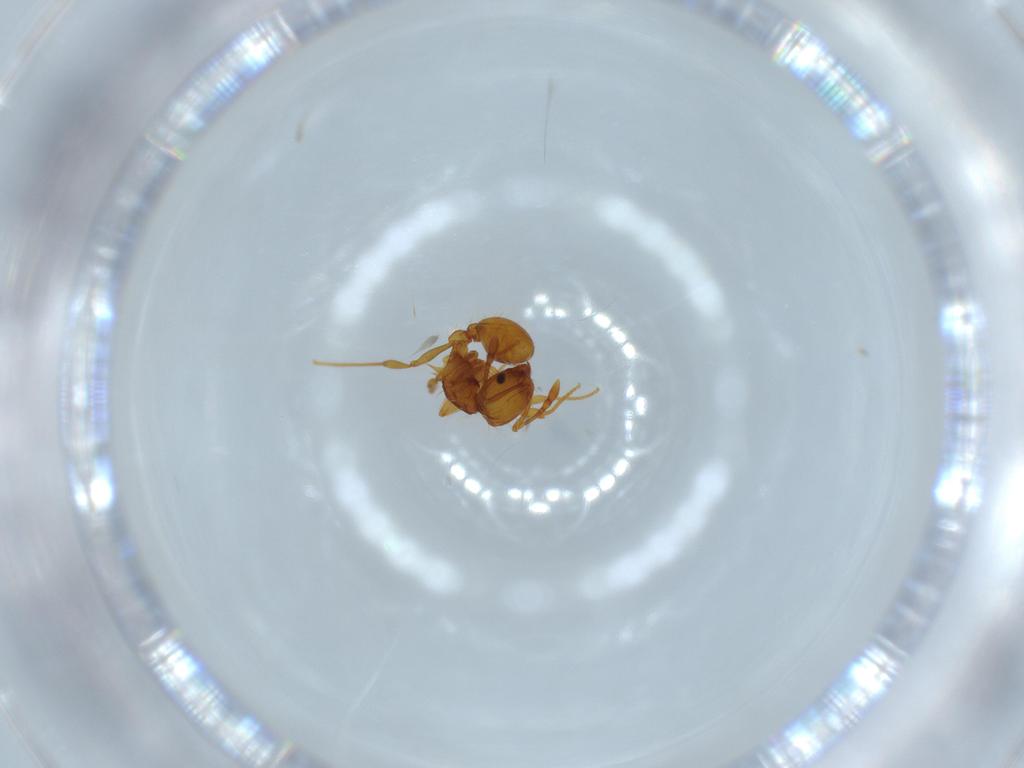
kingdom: Animalia
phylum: Arthropoda
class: Insecta
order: Hymenoptera
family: Formicidae
